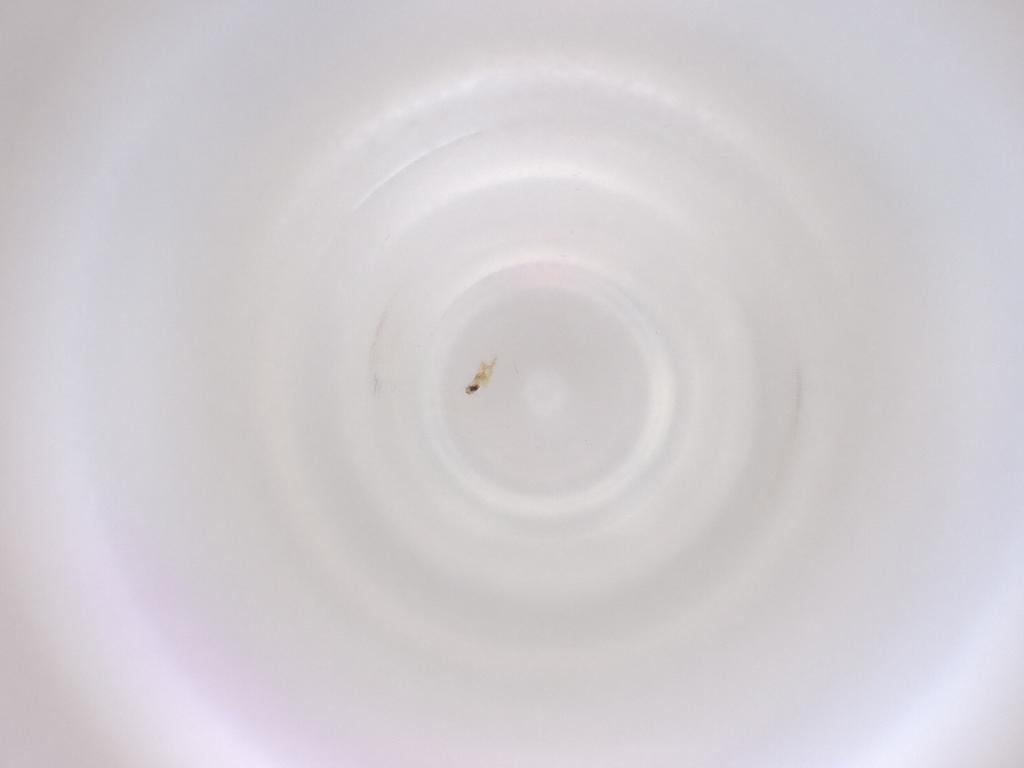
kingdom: Animalia
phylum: Arthropoda
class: Insecta
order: Diptera
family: Cecidomyiidae
